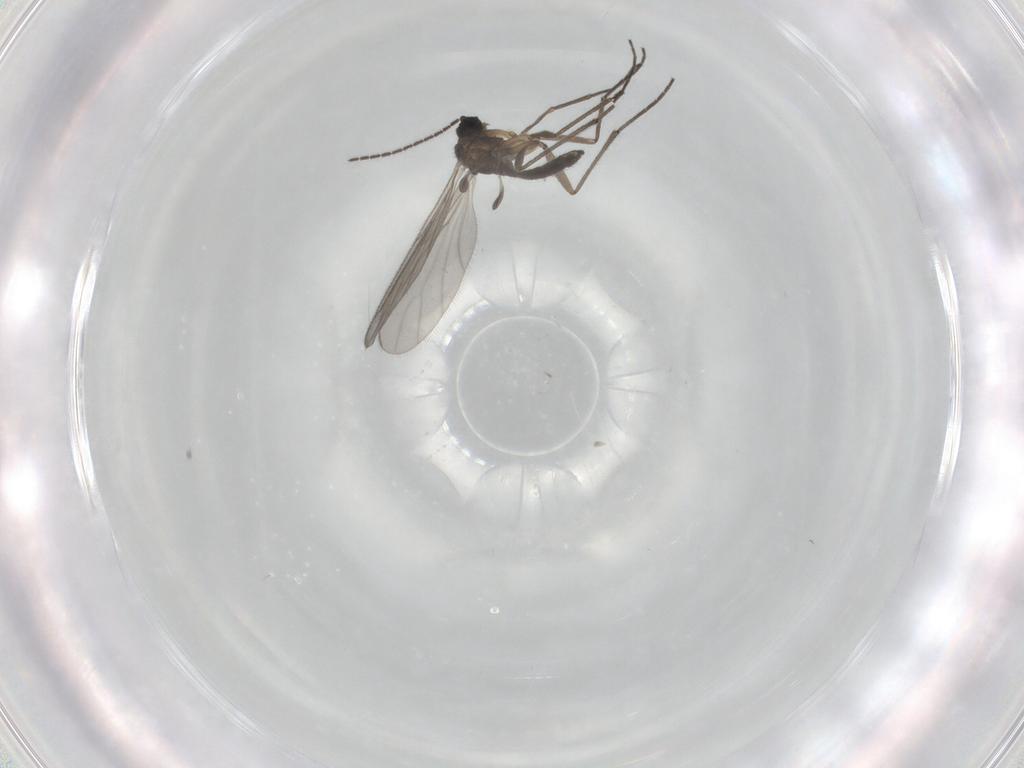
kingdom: Animalia
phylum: Arthropoda
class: Insecta
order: Diptera
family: Sciaridae
